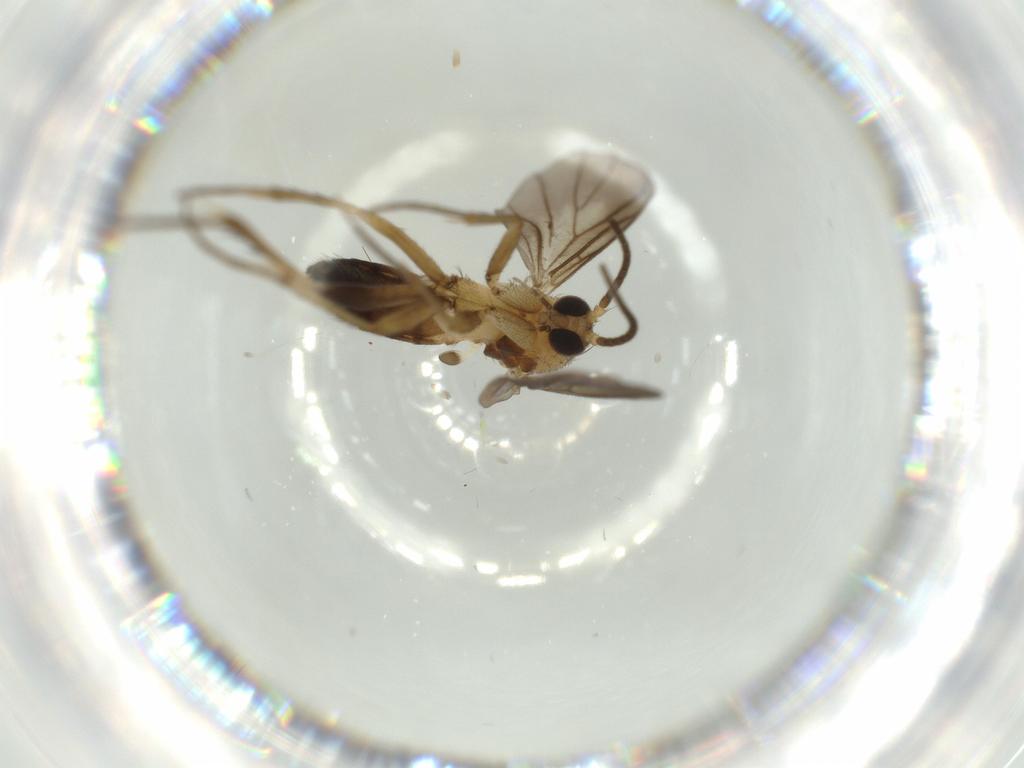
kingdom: Animalia
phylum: Arthropoda
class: Insecta
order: Diptera
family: Mycetophilidae
